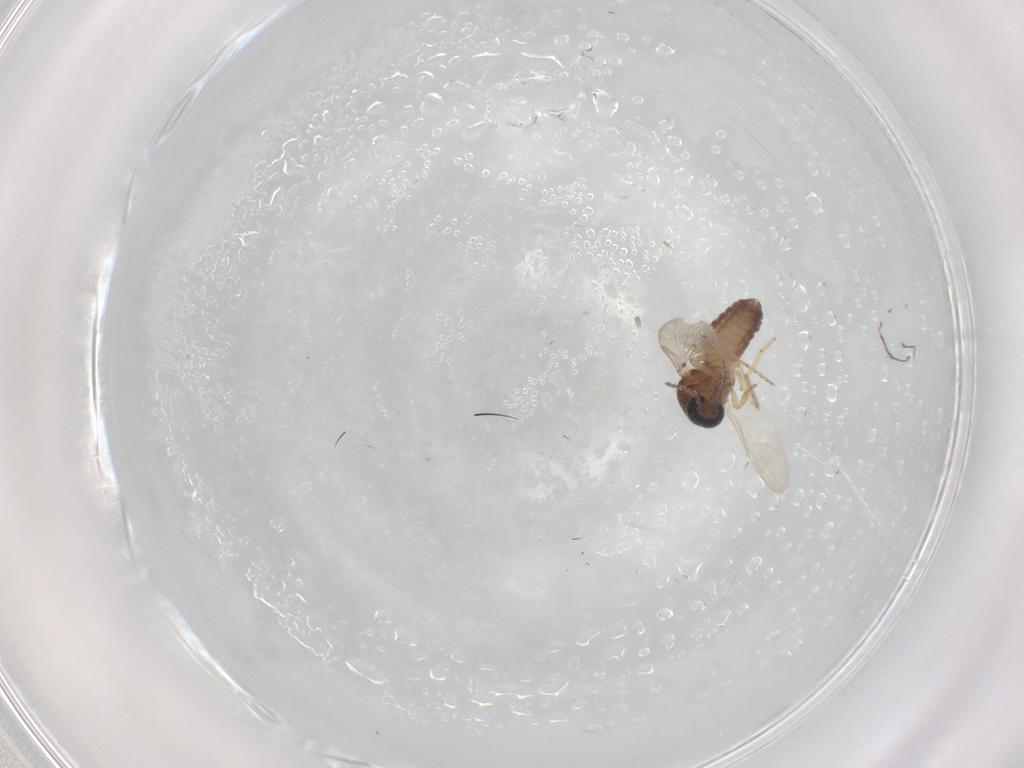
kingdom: Animalia
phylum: Arthropoda
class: Insecta
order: Diptera
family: Ceratopogonidae
